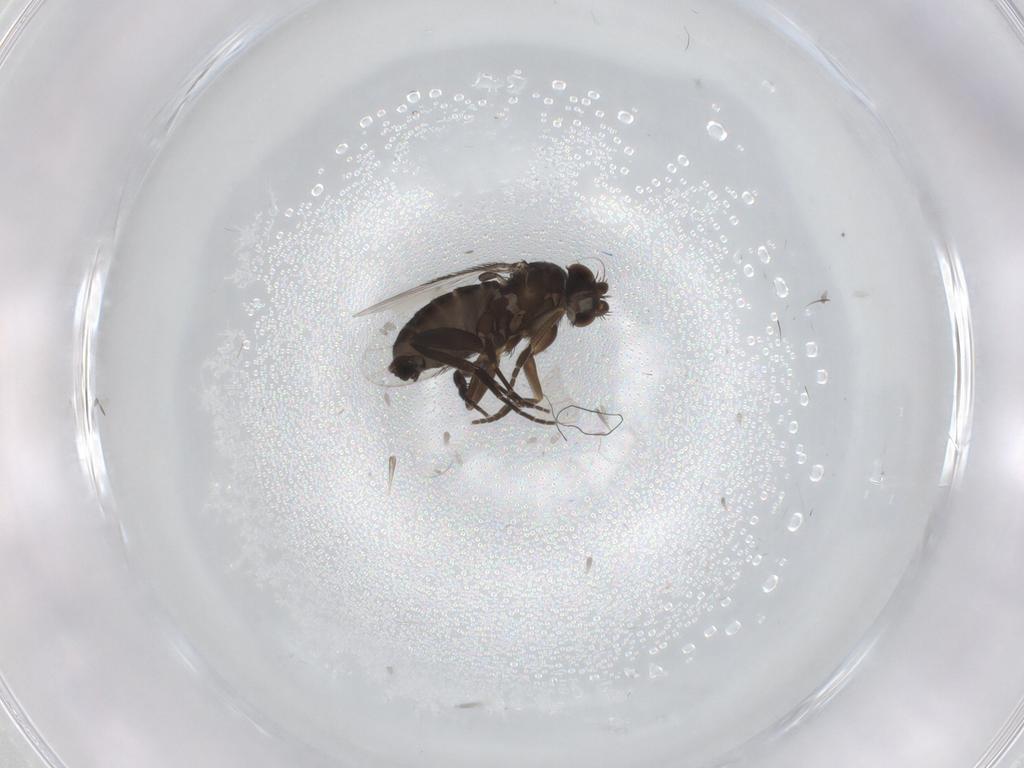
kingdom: Animalia
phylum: Arthropoda
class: Insecta
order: Diptera
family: Phoridae
